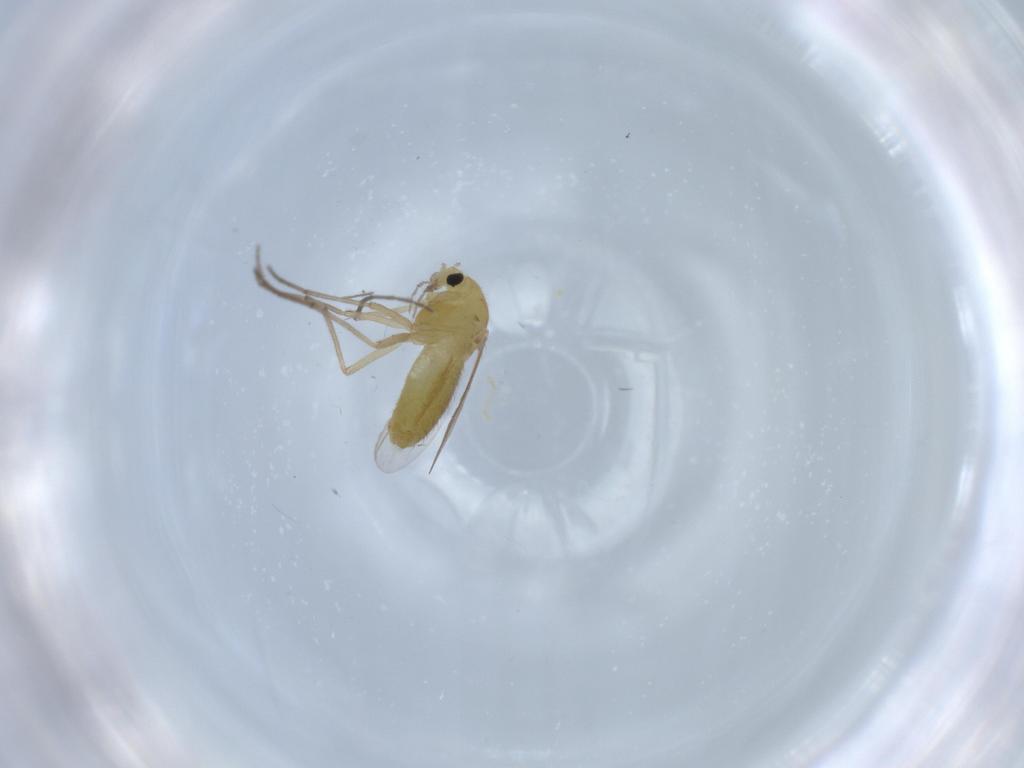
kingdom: Animalia
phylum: Arthropoda
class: Insecta
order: Diptera
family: Chironomidae
